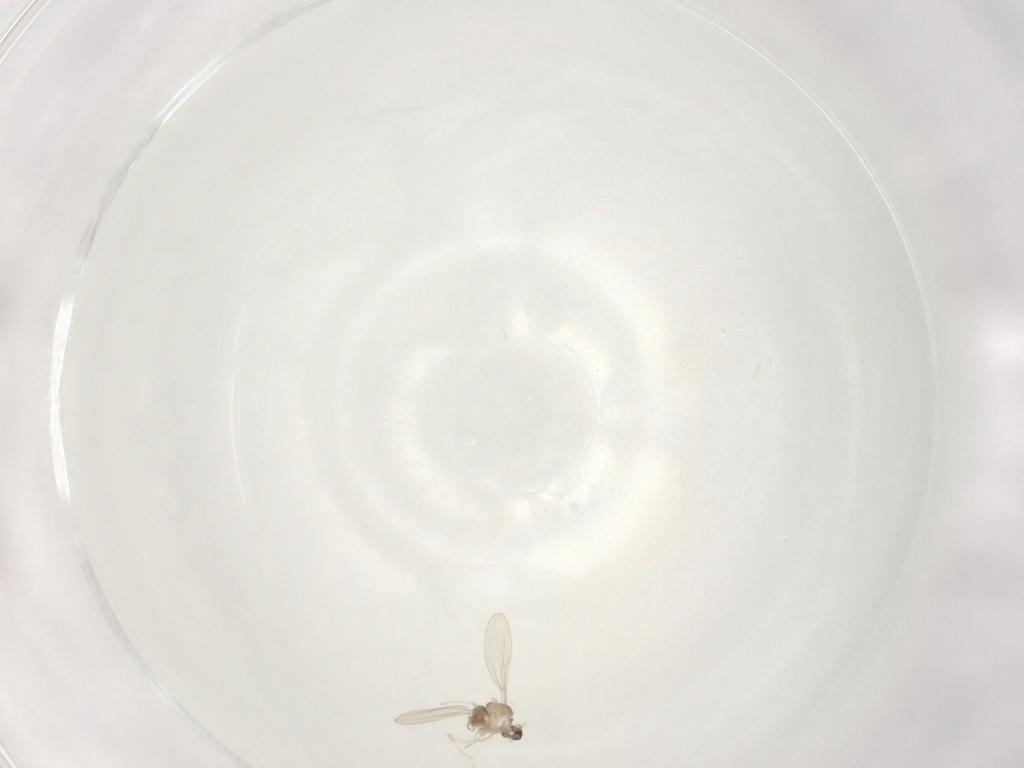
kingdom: Animalia
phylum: Arthropoda
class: Insecta
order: Diptera
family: Cecidomyiidae
